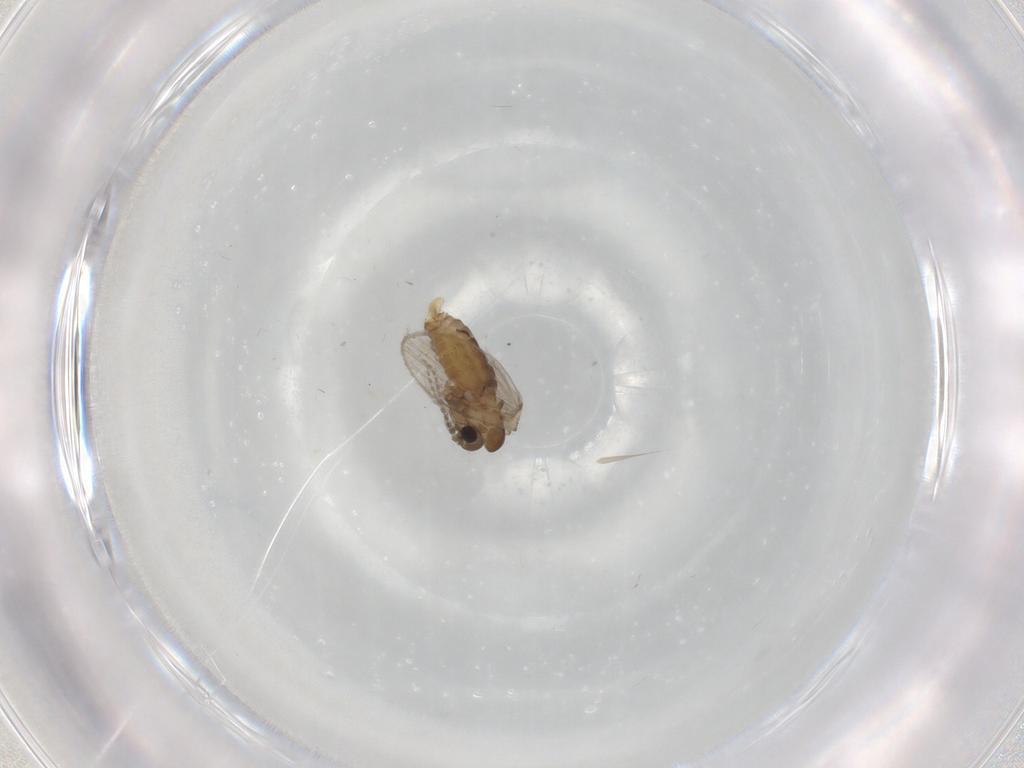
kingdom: Animalia
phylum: Arthropoda
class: Insecta
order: Diptera
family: Sciaridae
